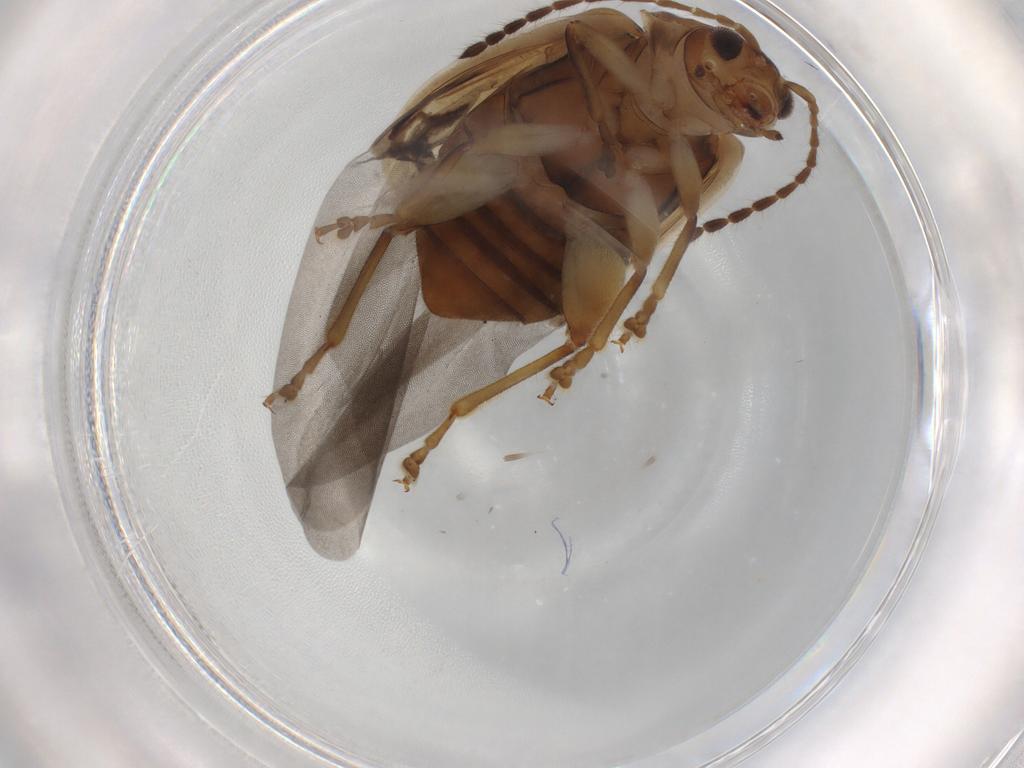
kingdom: Animalia
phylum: Arthropoda
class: Insecta
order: Coleoptera
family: Chrysomelidae
